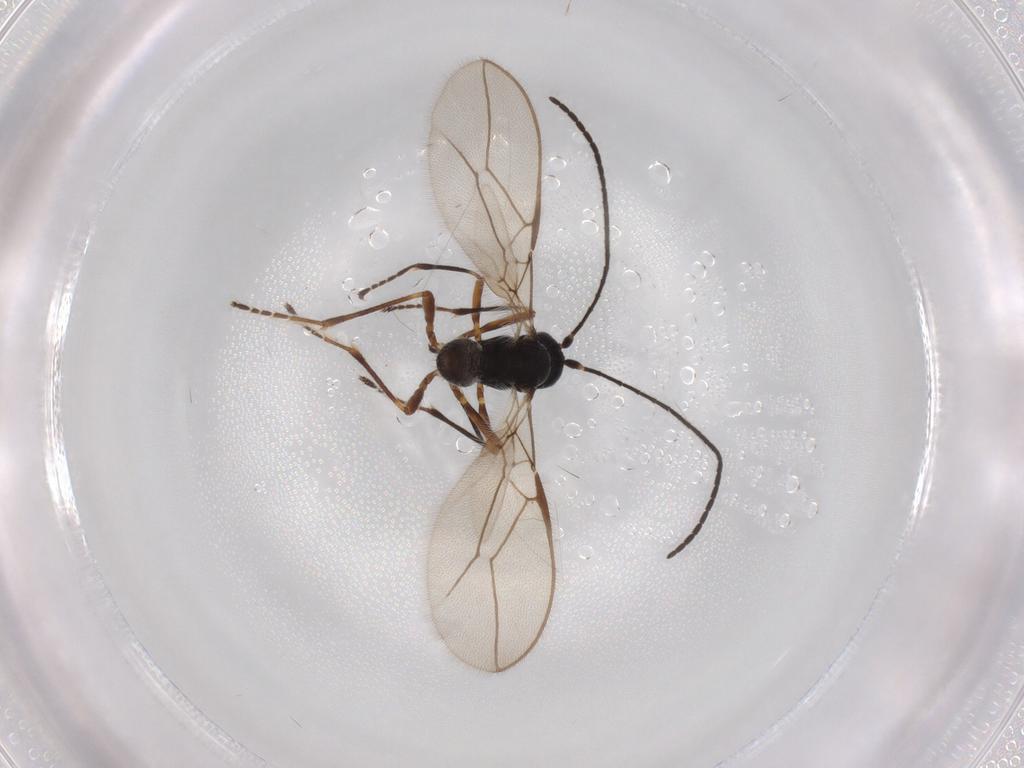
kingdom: Animalia
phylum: Arthropoda
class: Insecta
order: Hymenoptera
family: Braconidae
